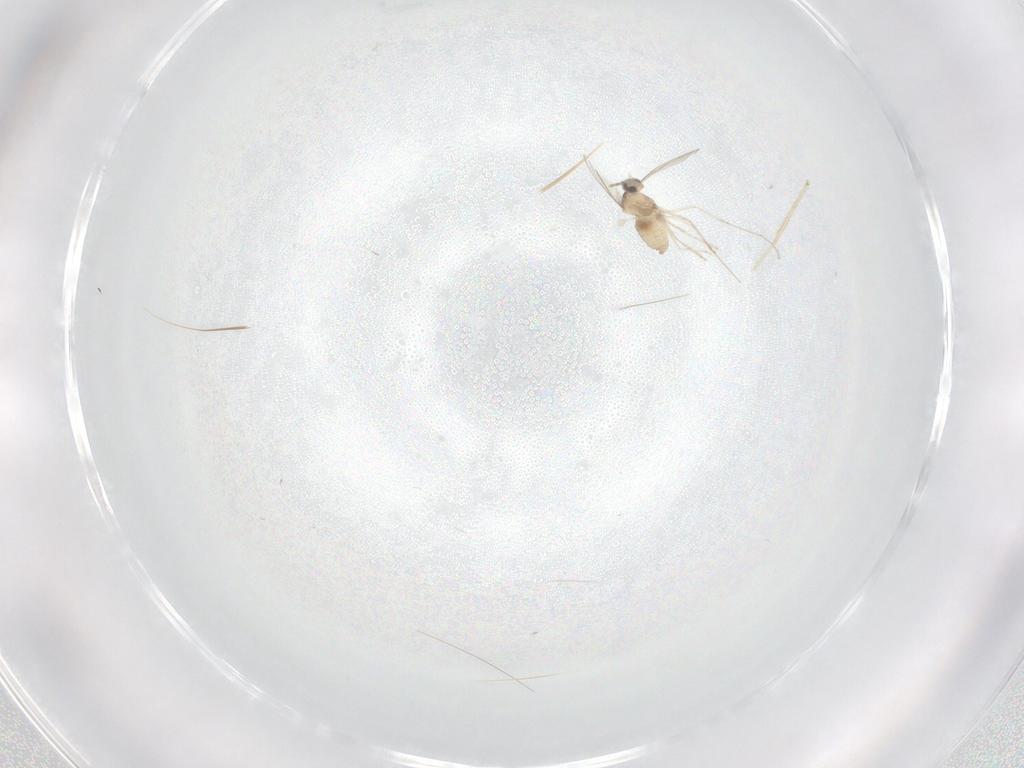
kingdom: Animalia
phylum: Arthropoda
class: Insecta
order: Diptera
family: Chironomidae
